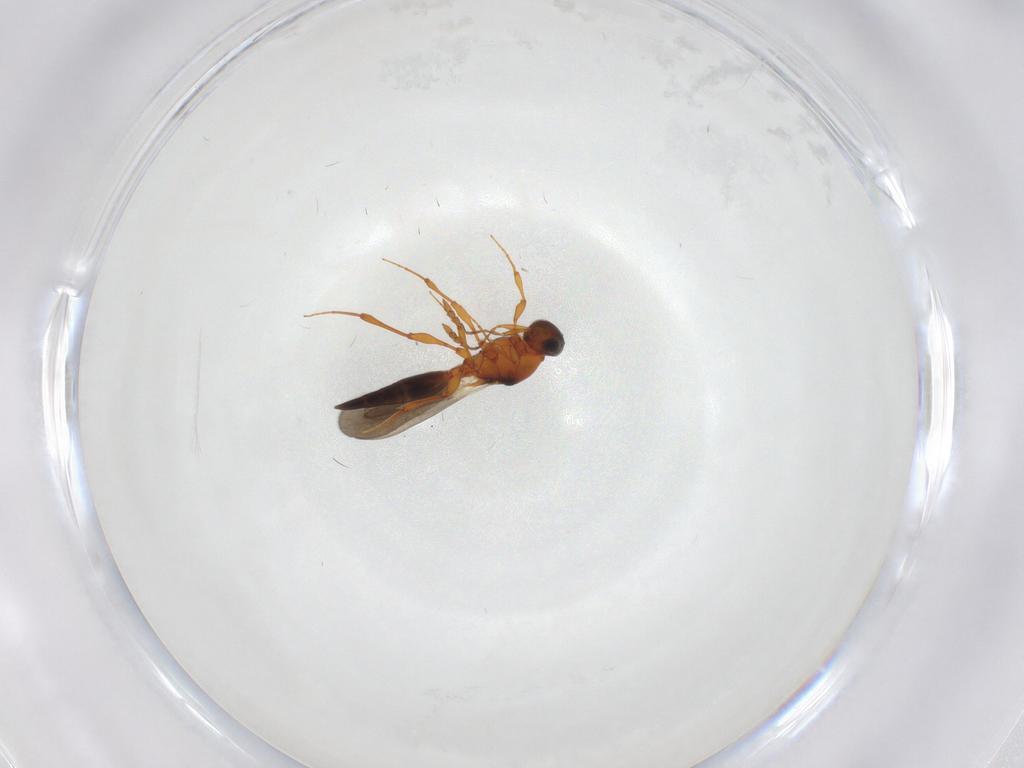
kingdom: Animalia
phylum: Arthropoda
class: Insecta
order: Hymenoptera
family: Platygastridae
